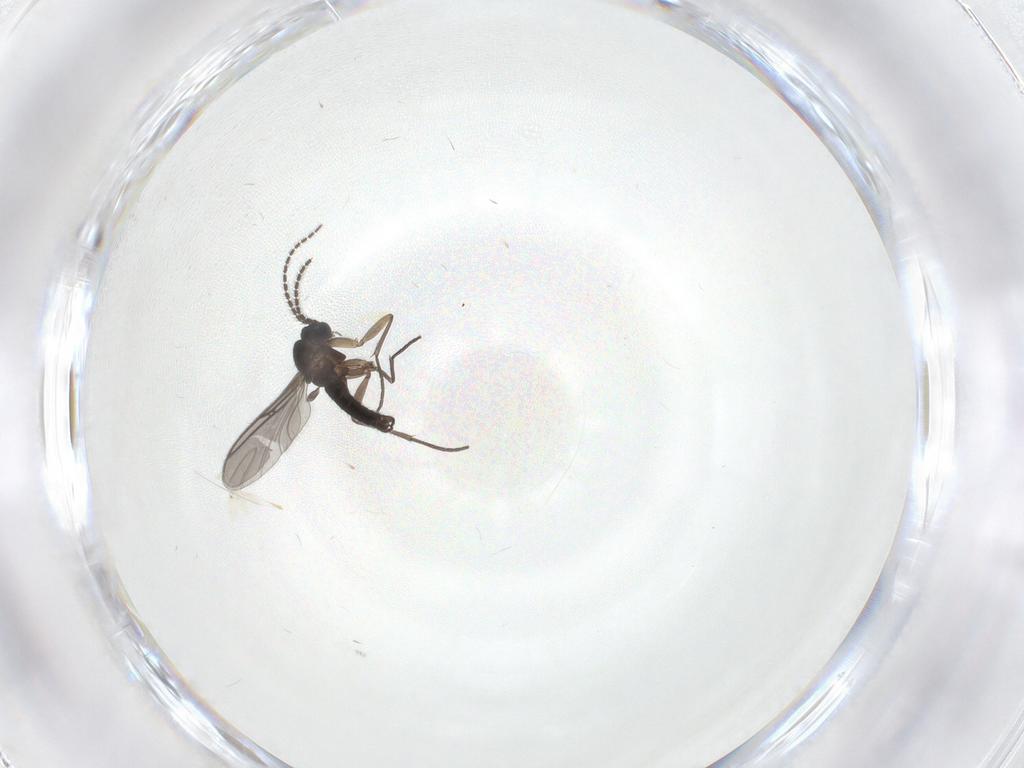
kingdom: Animalia
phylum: Arthropoda
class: Insecta
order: Diptera
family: Sciaridae
